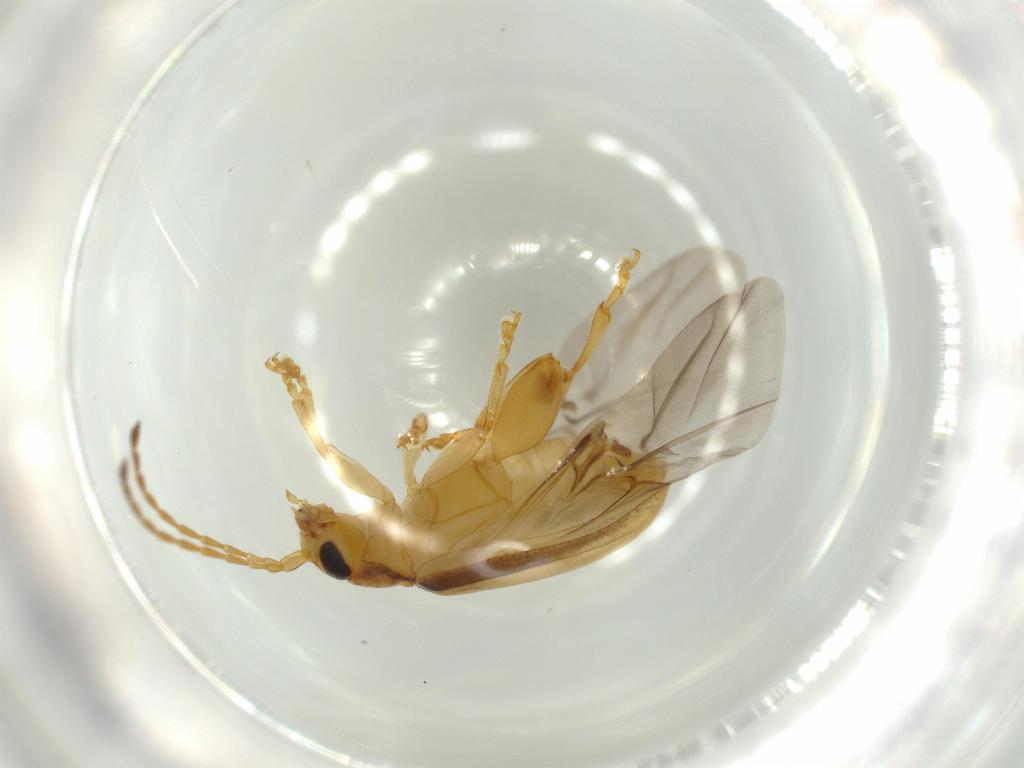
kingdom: Animalia
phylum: Arthropoda
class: Insecta
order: Coleoptera
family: Chrysomelidae
